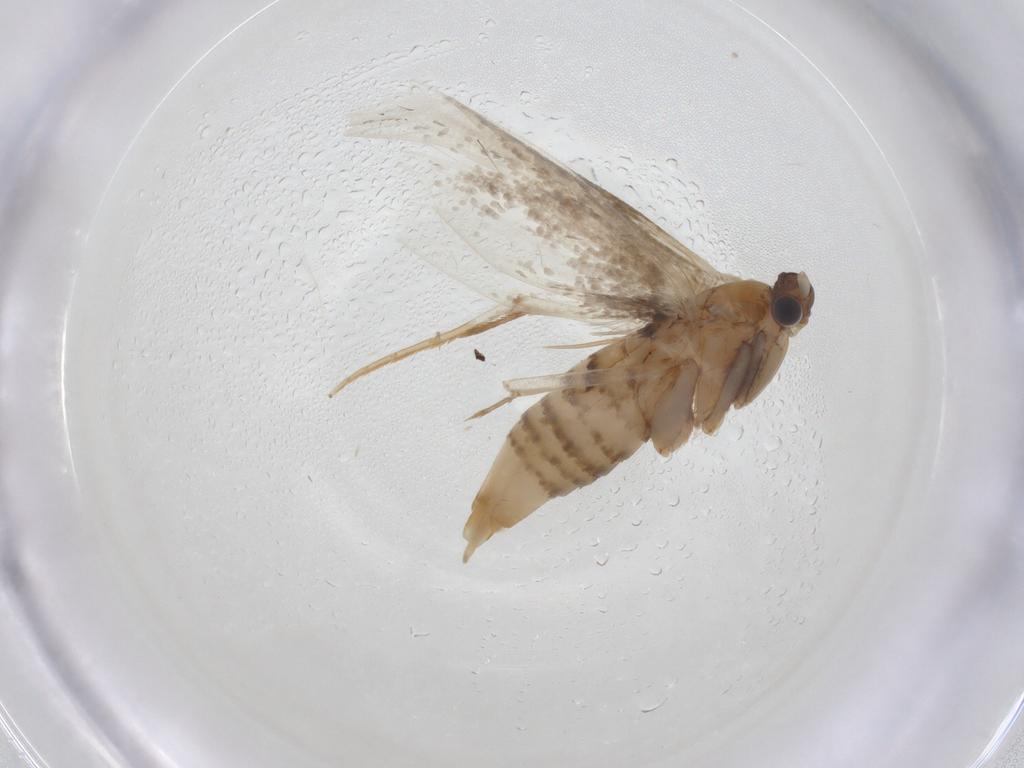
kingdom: Animalia
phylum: Arthropoda
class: Insecta
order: Lepidoptera
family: Tineidae
